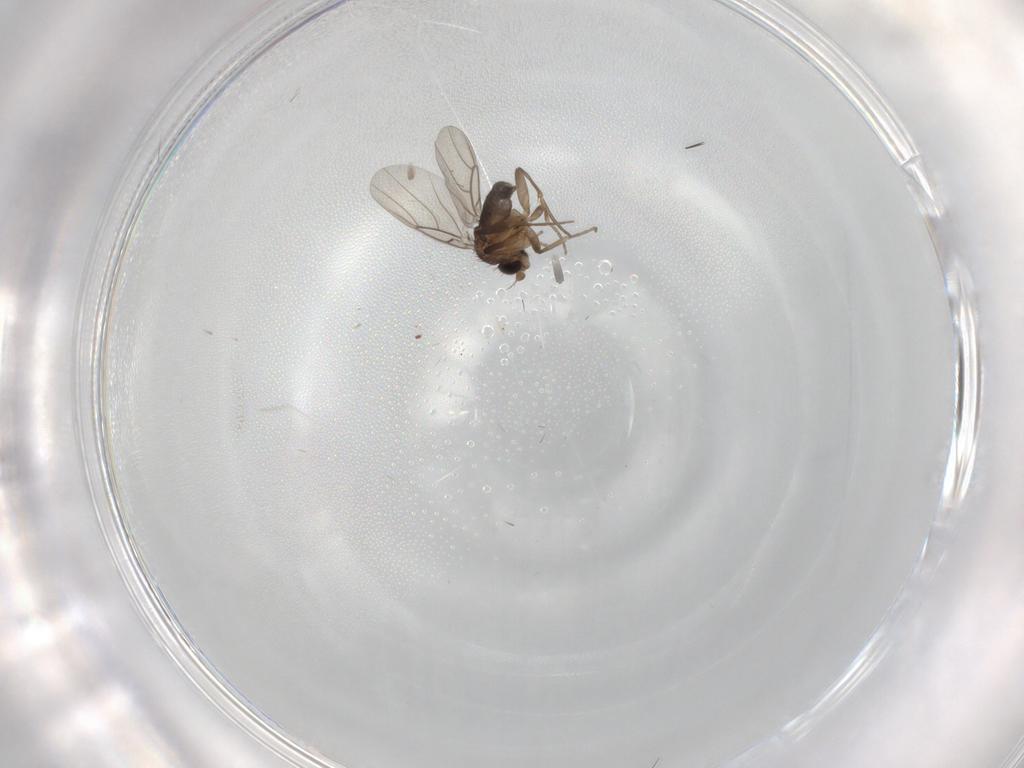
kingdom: Animalia
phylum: Arthropoda
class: Insecta
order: Diptera
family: Phoridae
